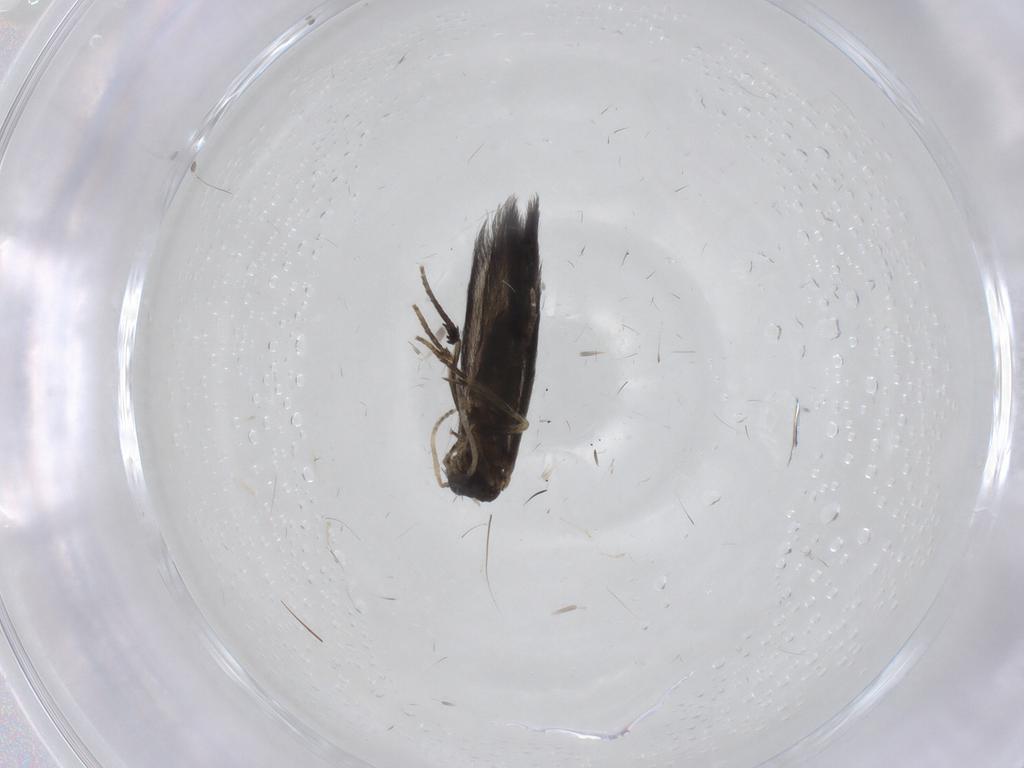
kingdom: Animalia
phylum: Arthropoda
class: Insecta
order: Trichoptera
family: Hydroptilidae
